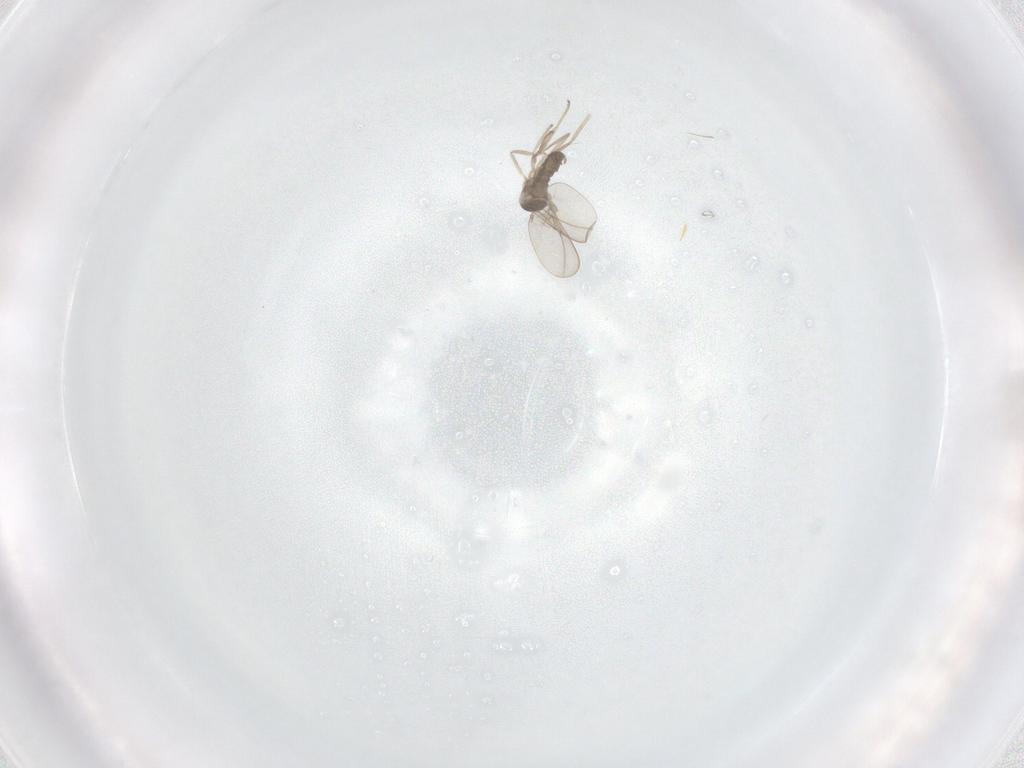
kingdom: Animalia
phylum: Arthropoda
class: Insecta
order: Diptera
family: Cecidomyiidae
